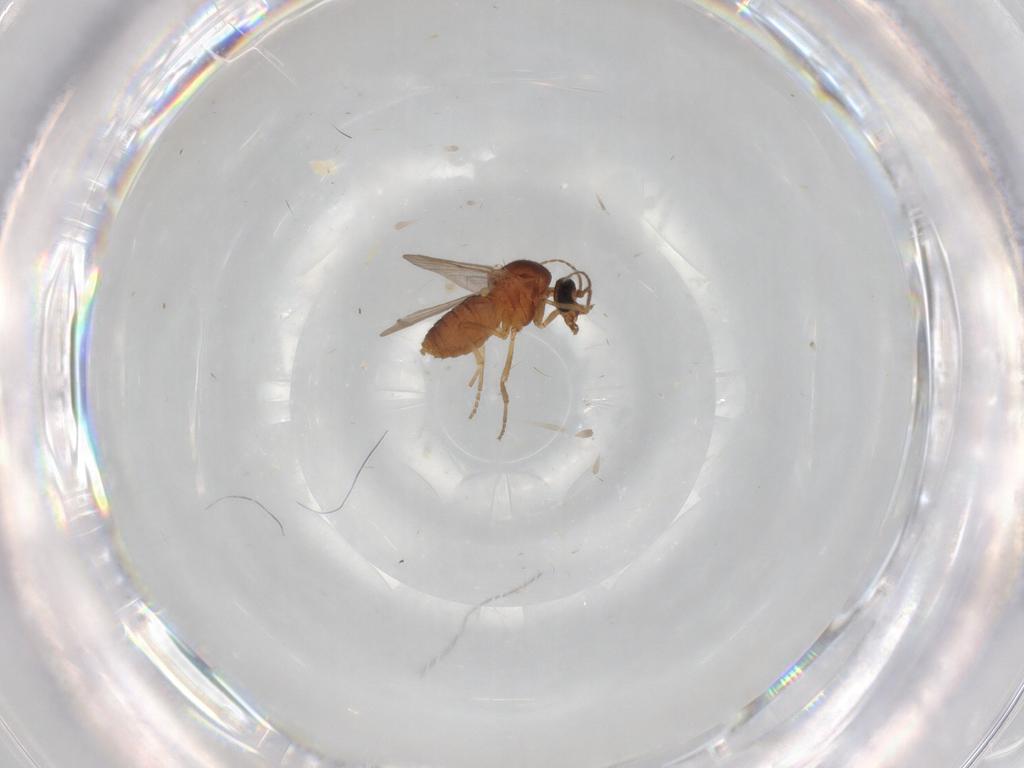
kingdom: Animalia
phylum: Arthropoda
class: Insecta
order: Diptera
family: Ceratopogonidae
